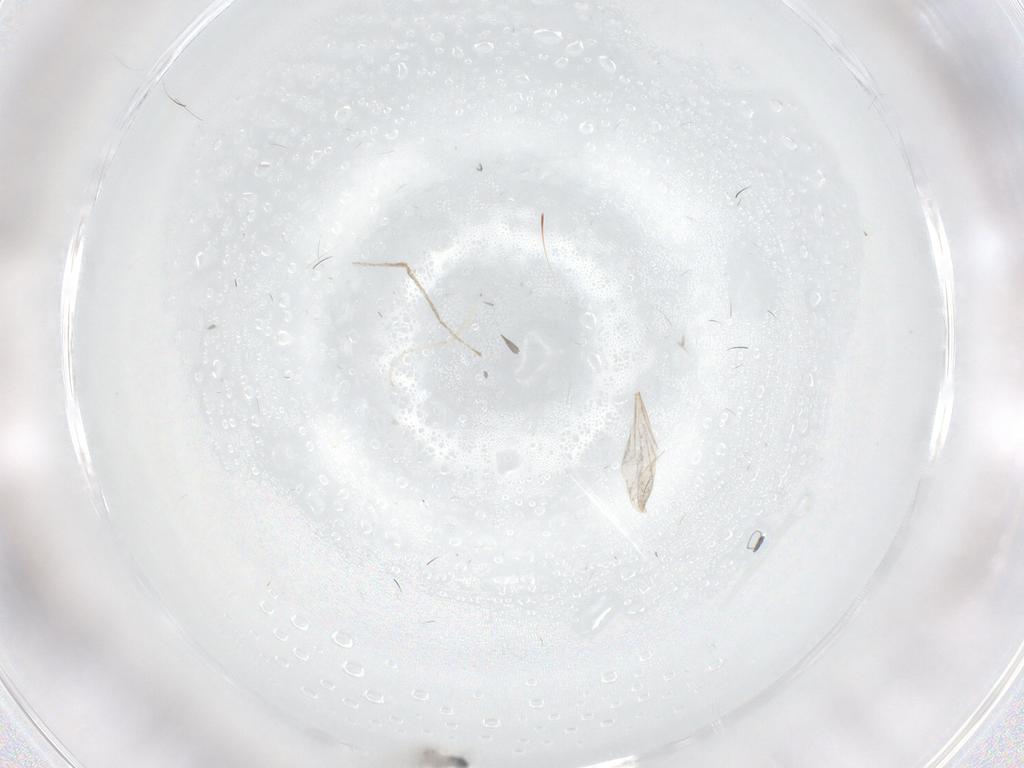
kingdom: Animalia
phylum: Arthropoda
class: Insecta
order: Diptera
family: Cecidomyiidae
